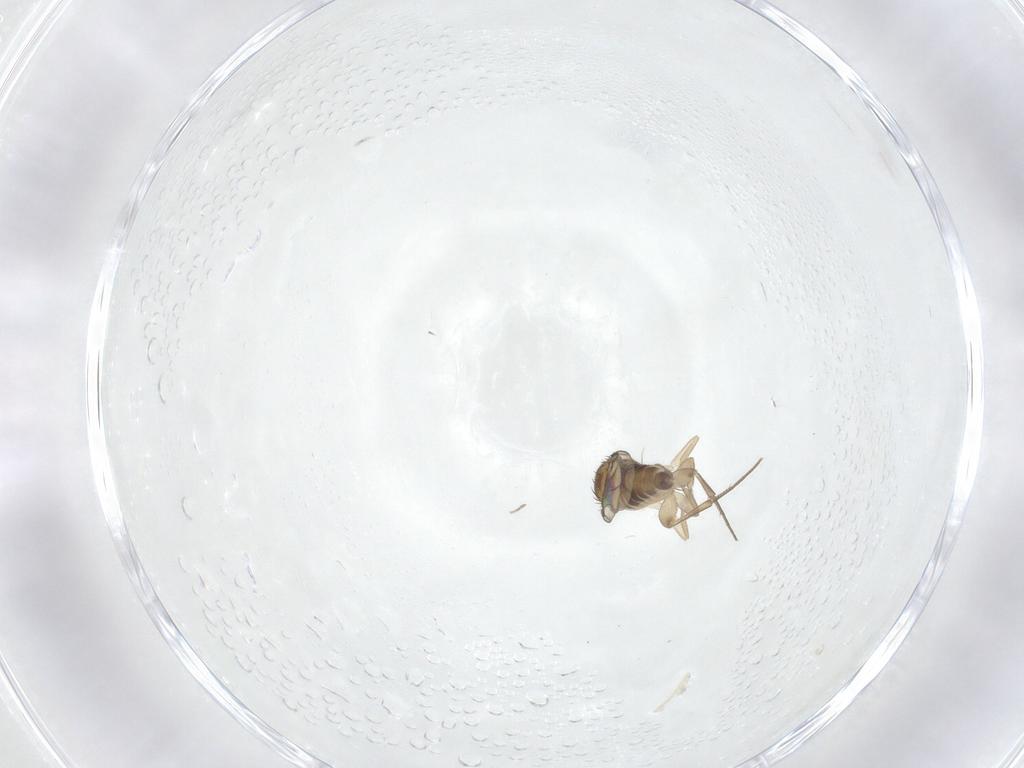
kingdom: Animalia
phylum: Arthropoda
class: Insecta
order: Diptera
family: Phoridae
